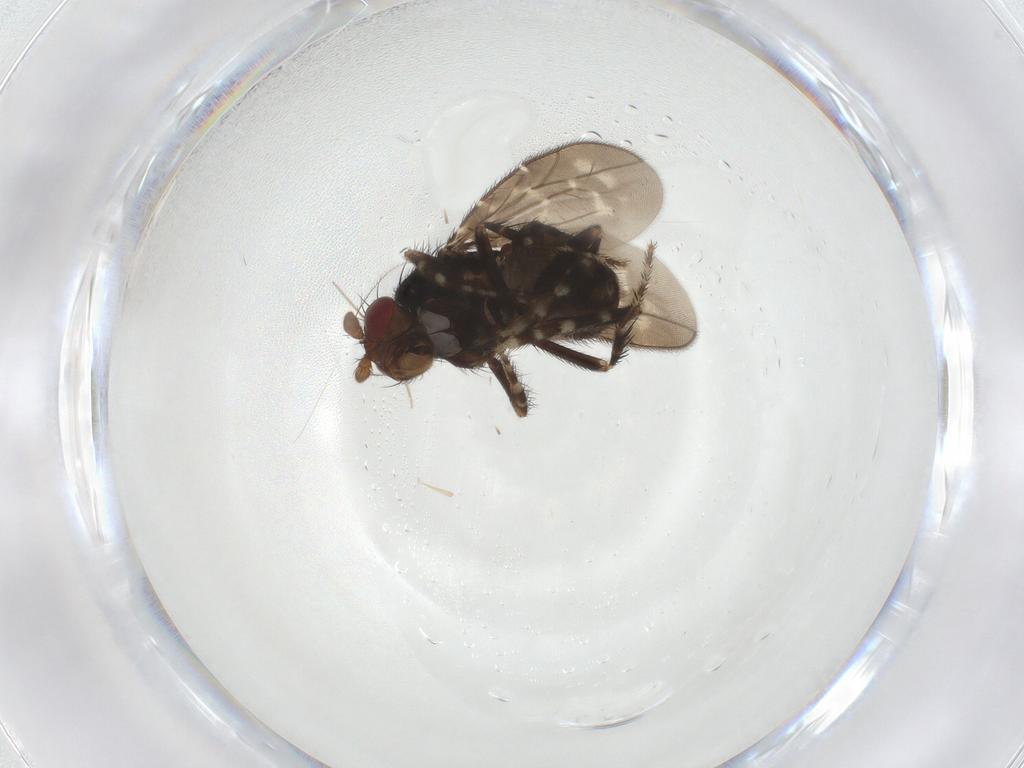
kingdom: Animalia
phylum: Arthropoda
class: Insecta
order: Diptera
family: Sphaeroceridae
